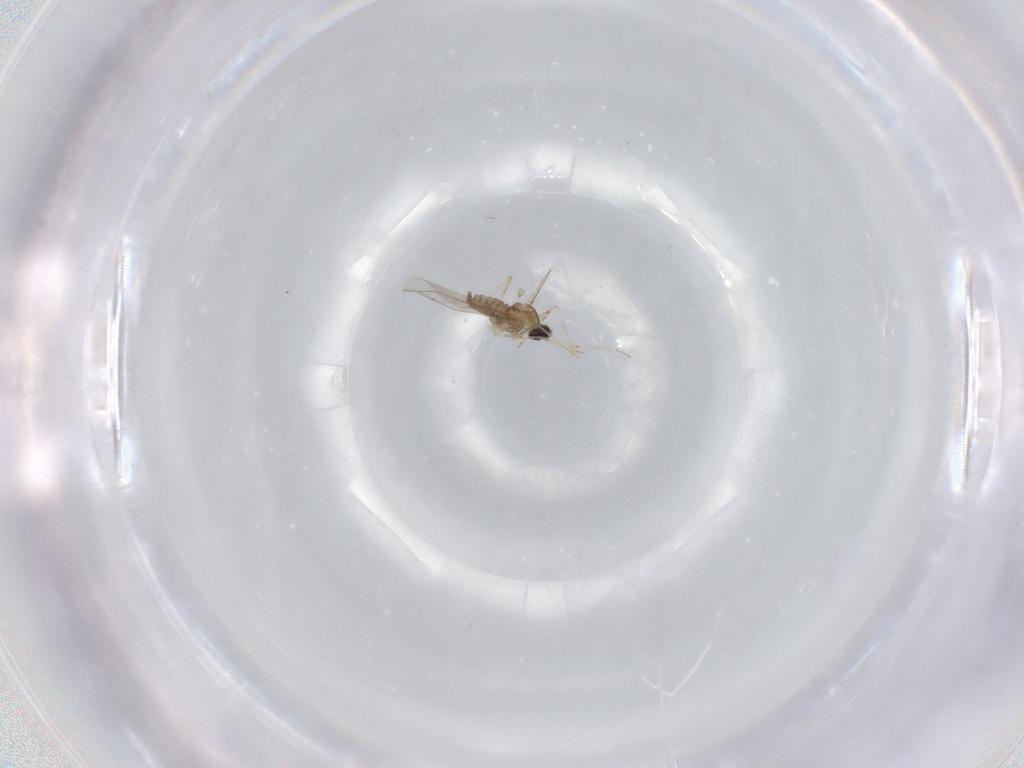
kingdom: Animalia
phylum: Arthropoda
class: Insecta
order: Diptera
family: Cecidomyiidae
